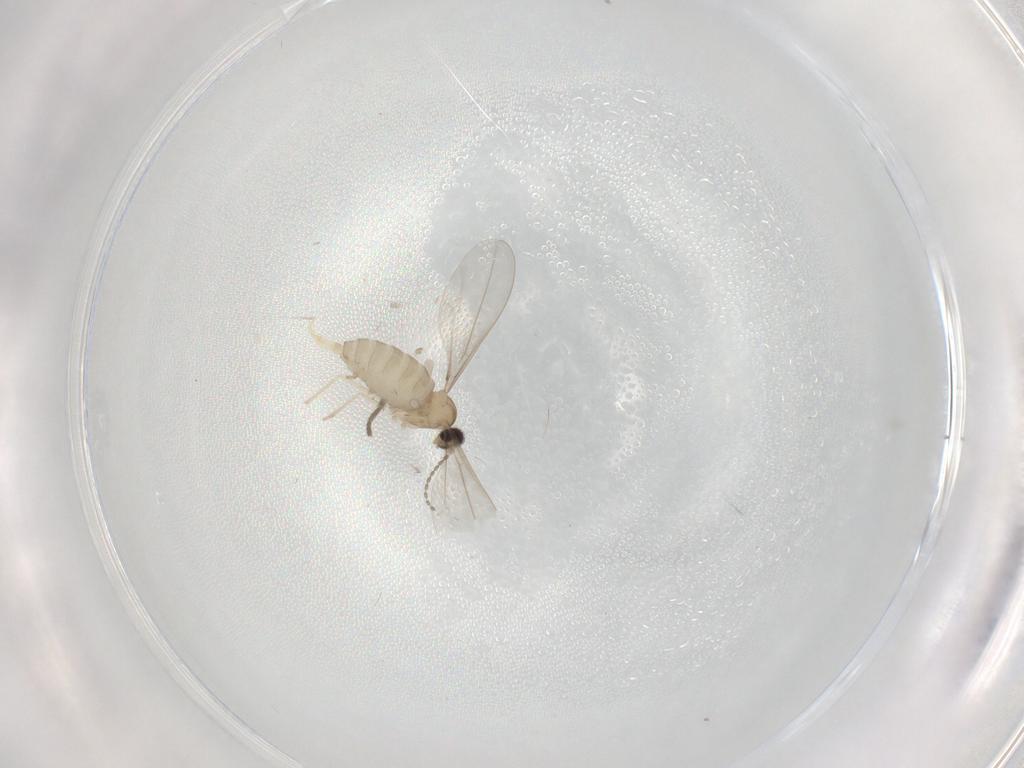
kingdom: Animalia
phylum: Arthropoda
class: Insecta
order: Diptera
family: Cecidomyiidae
